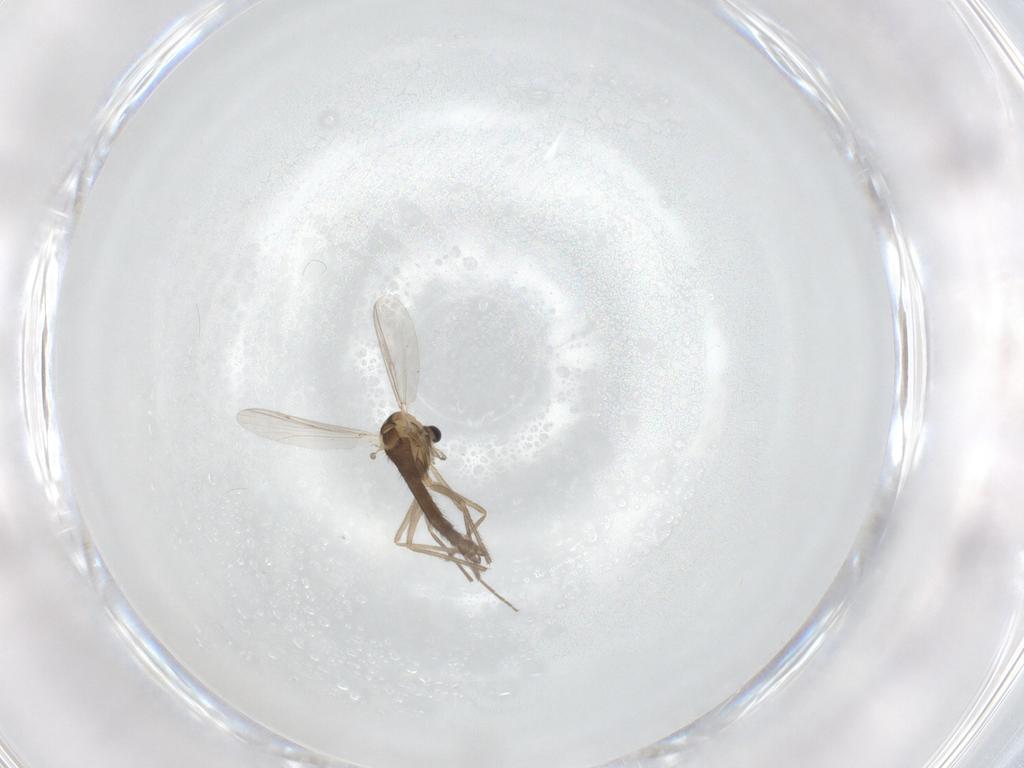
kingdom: Animalia
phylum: Arthropoda
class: Insecta
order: Diptera
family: Chironomidae
